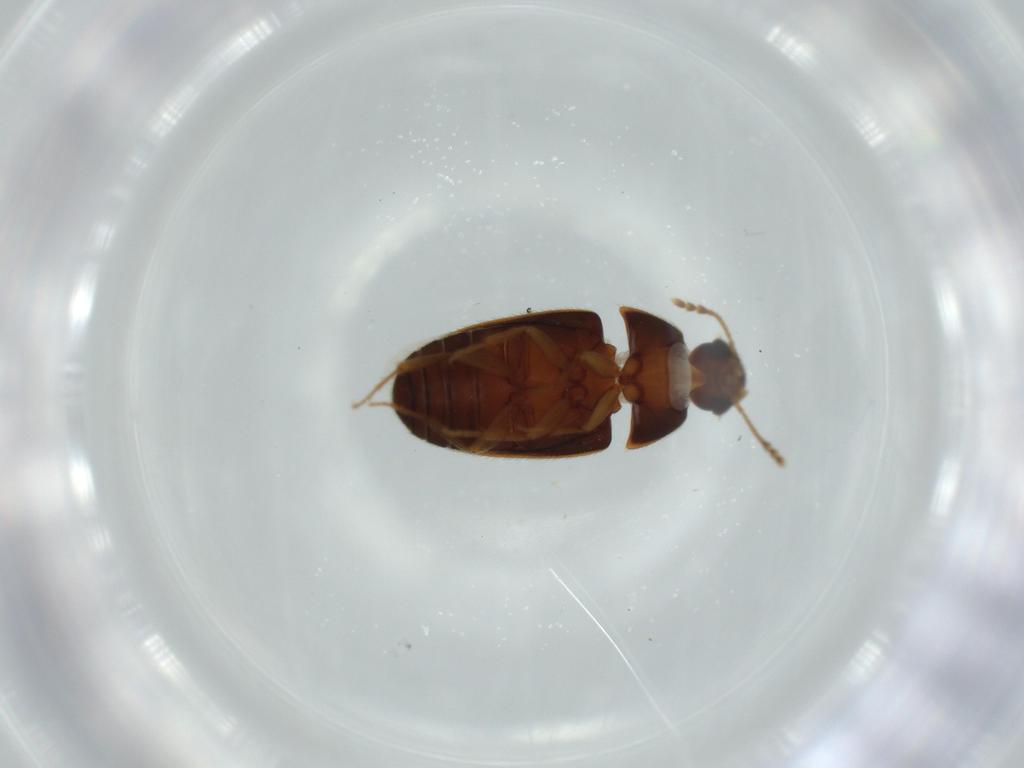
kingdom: Animalia
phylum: Arthropoda
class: Insecta
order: Coleoptera
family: Mycetophagidae
